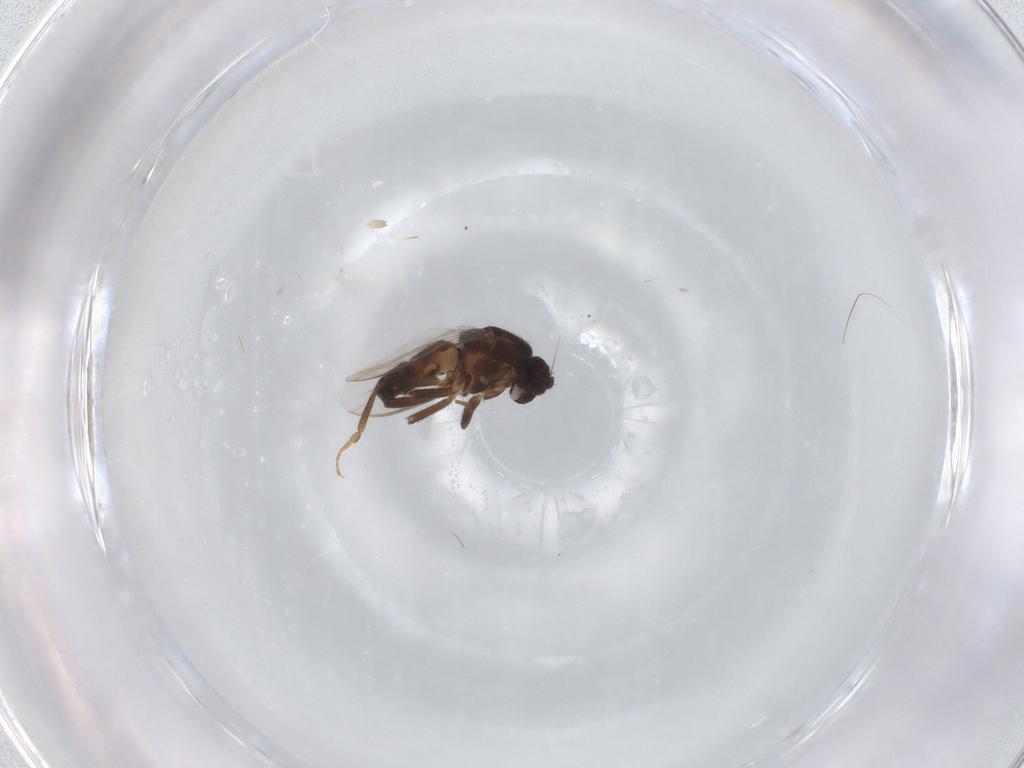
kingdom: Animalia
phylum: Arthropoda
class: Insecta
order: Diptera
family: Sphaeroceridae
